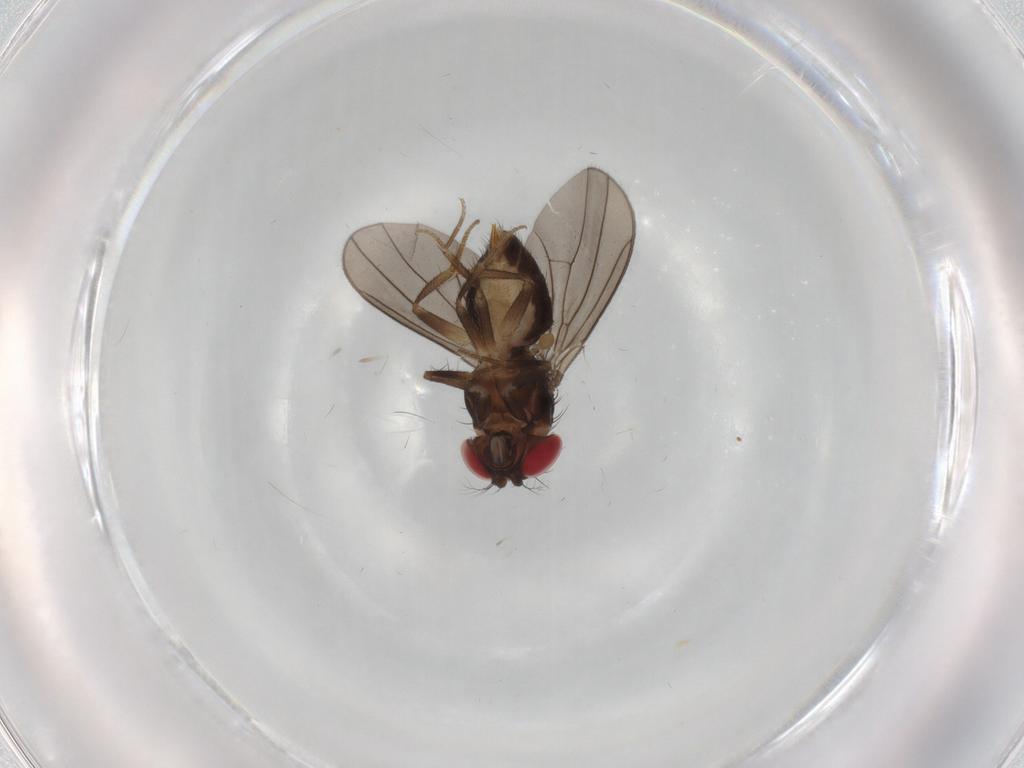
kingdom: Animalia
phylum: Arthropoda
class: Insecta
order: Diptera
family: Drosophilidae
